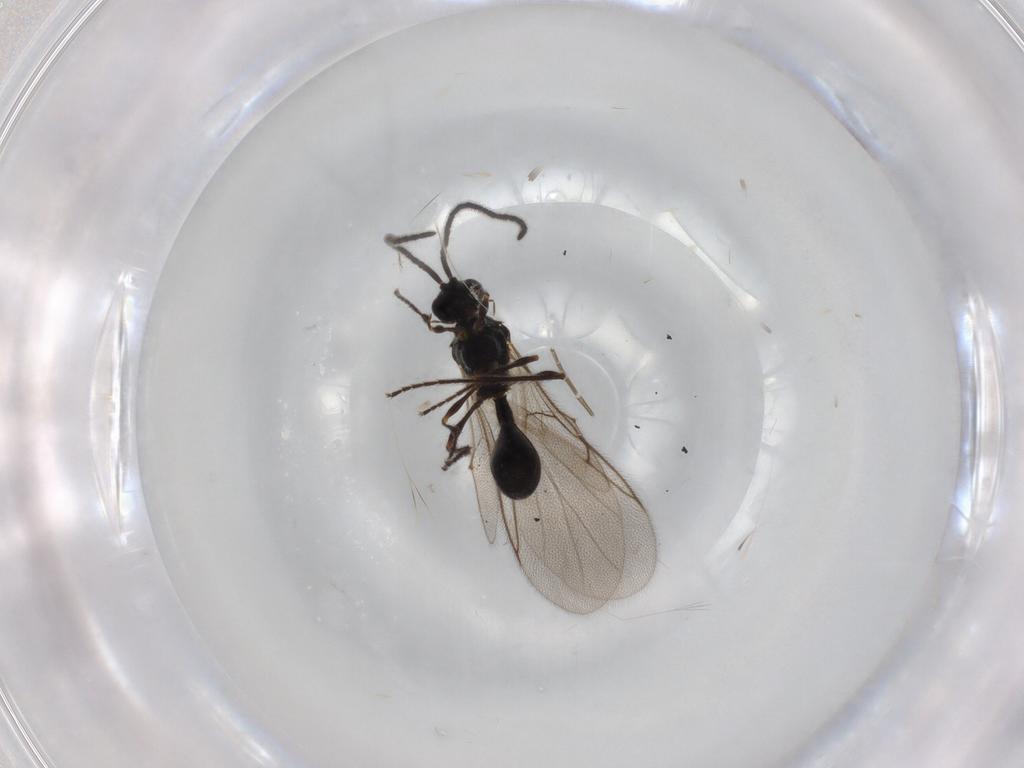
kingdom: Animalia
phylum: Arthropoda
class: Insecta
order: Hymenoptera
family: Diapriidae
